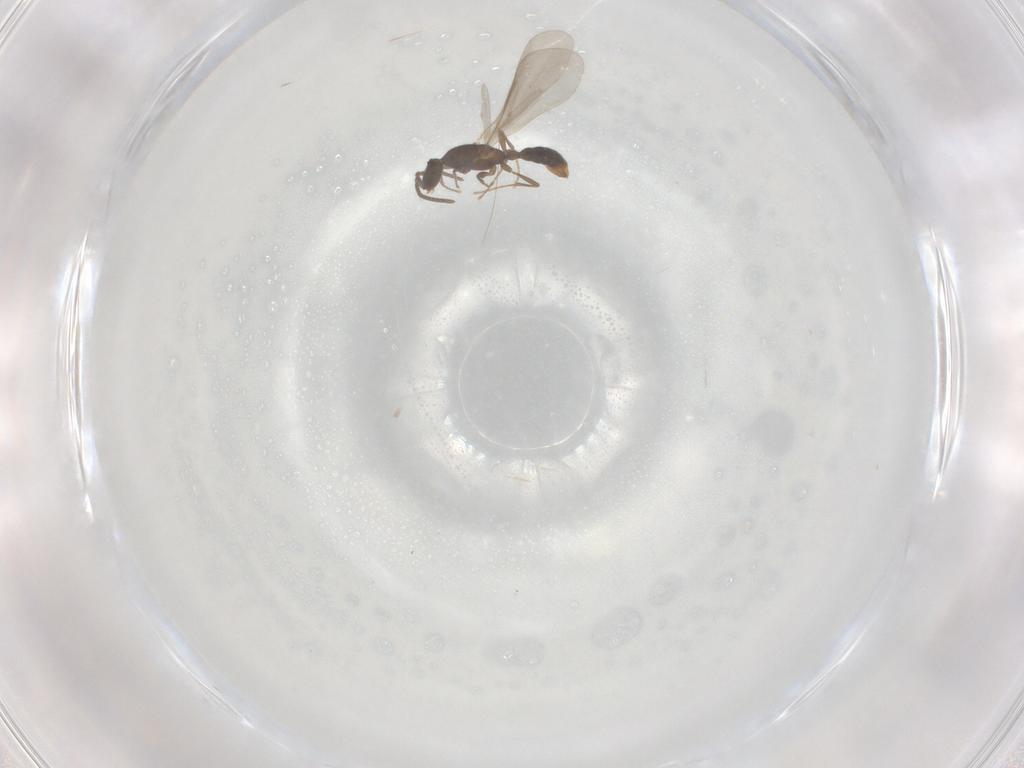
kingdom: Animalia
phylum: Arthropoda
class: Insecta
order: Hymenoptera
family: Formicidae
